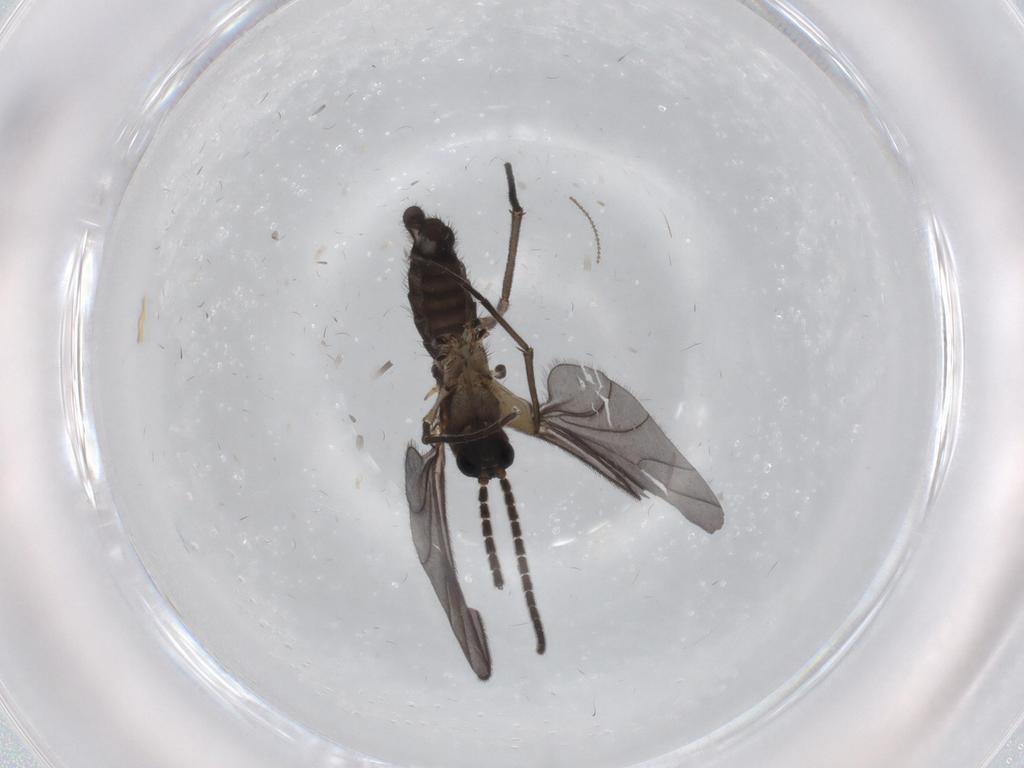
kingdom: Animalia
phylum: Arthropoda
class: Insecta
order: Diptera
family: Sciaridae
